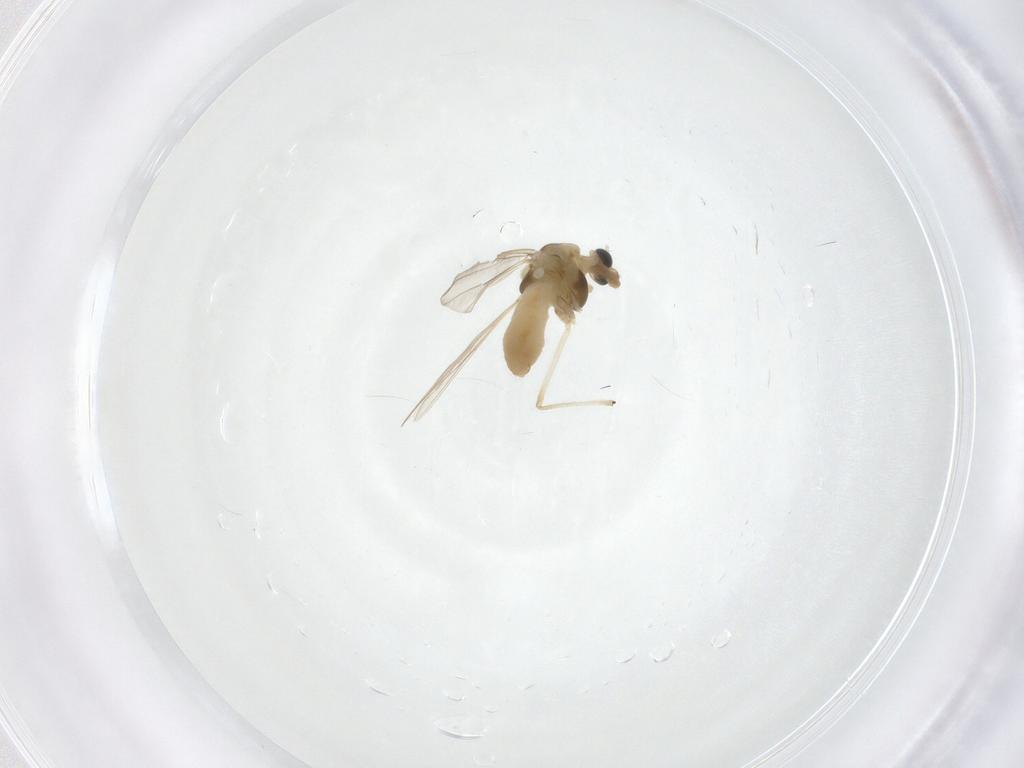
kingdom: Animalia
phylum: Arthropoda
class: Insecta
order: Diptera
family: Chironomidae
